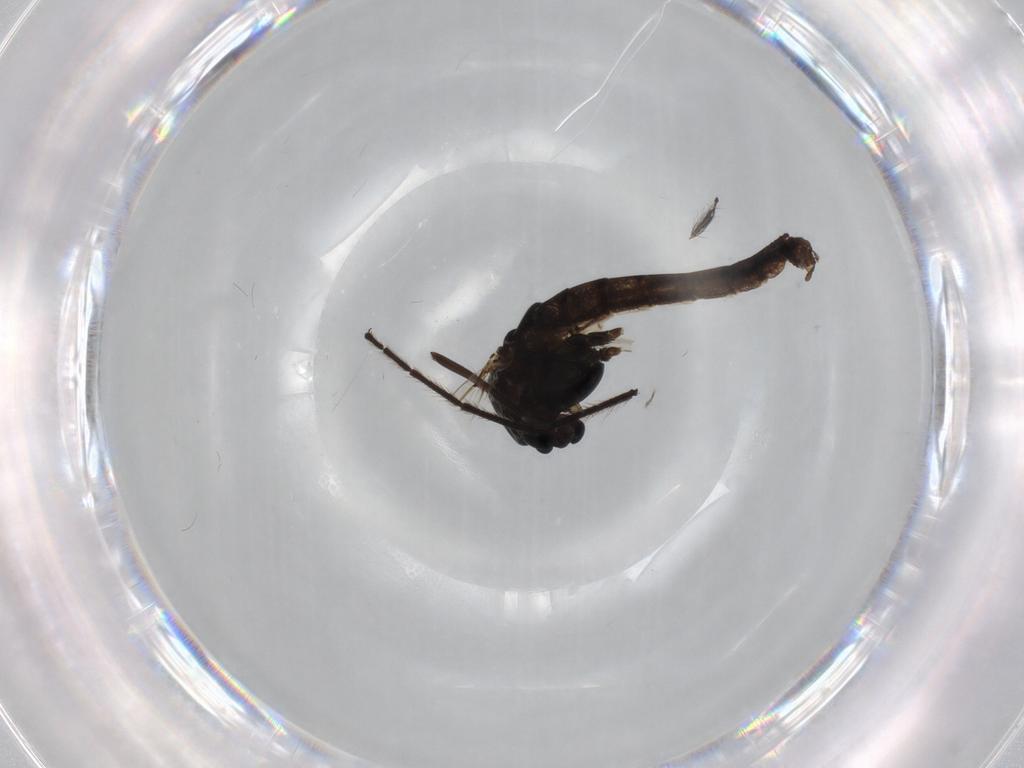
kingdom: Animalia
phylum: Arthropoda
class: Insecta
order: Diptera
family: Chironomidae
